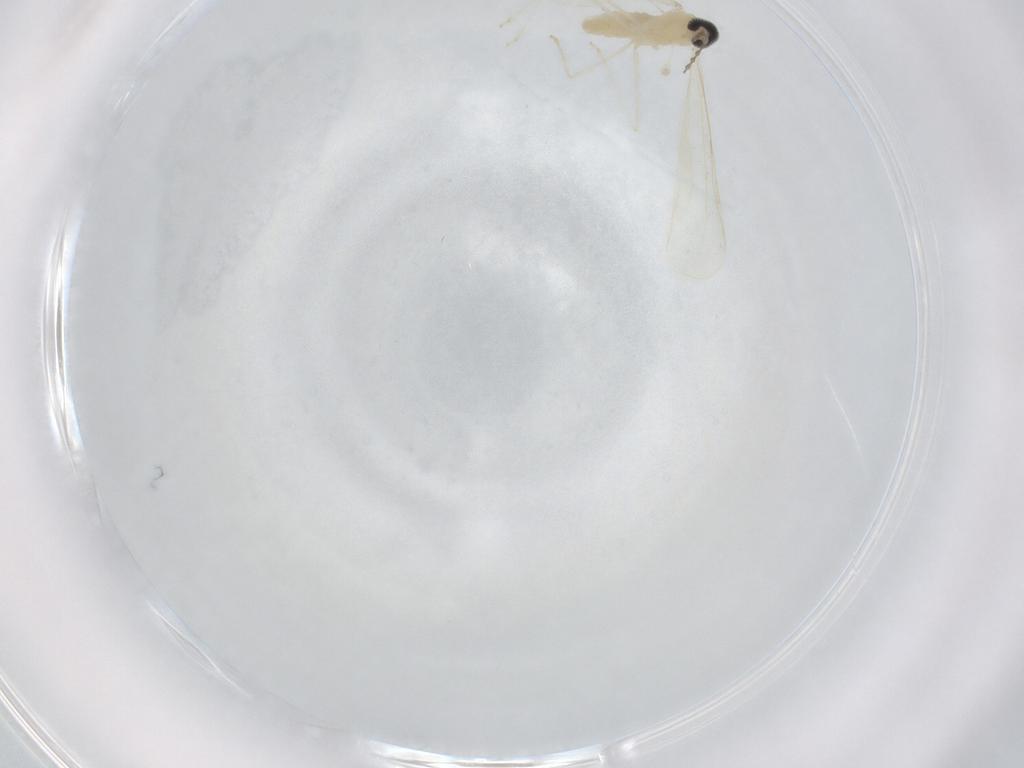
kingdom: Animalia
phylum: Arthropoda
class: Insecta
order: Diptera
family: Cecidomyiidae
